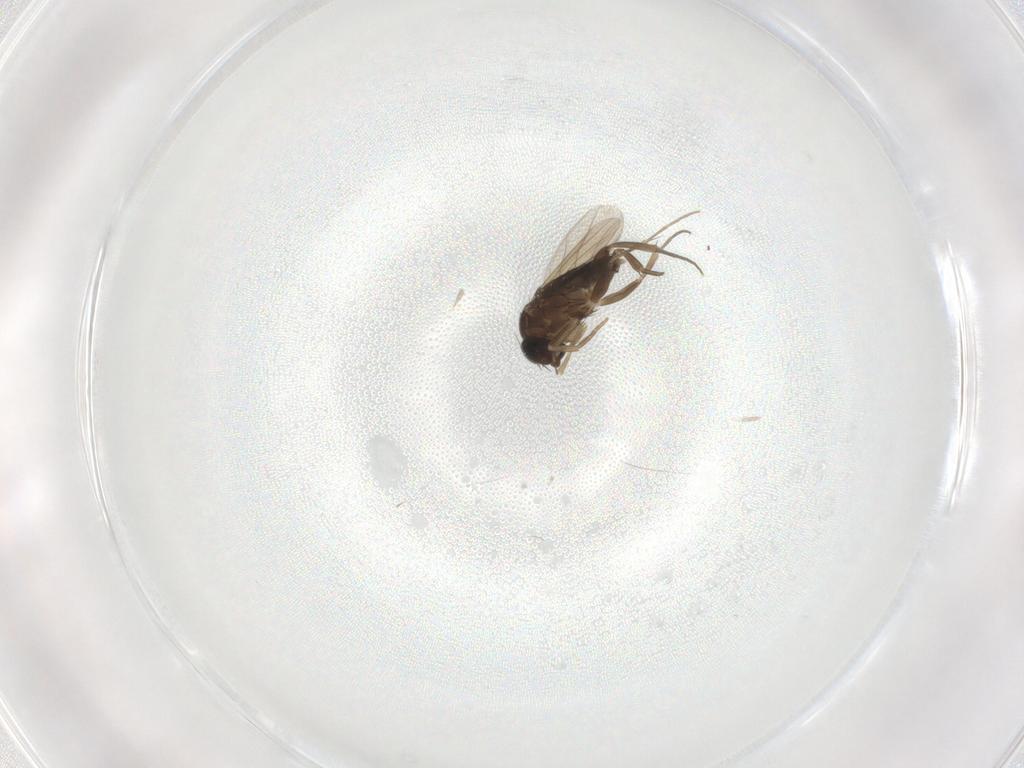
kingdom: Animalia
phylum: Arthropoda
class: Insecta
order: Diptera
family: Phoridae
